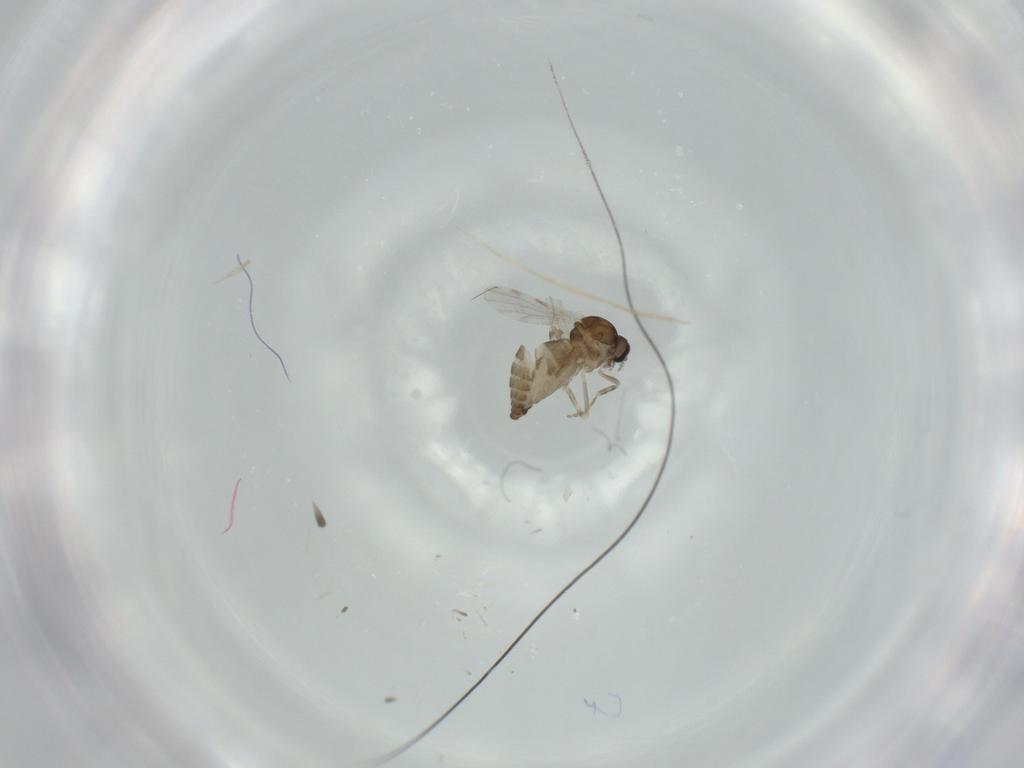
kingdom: Animalia
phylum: Arthropoda
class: Insecta
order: Diptera
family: Ceratopogonidae
